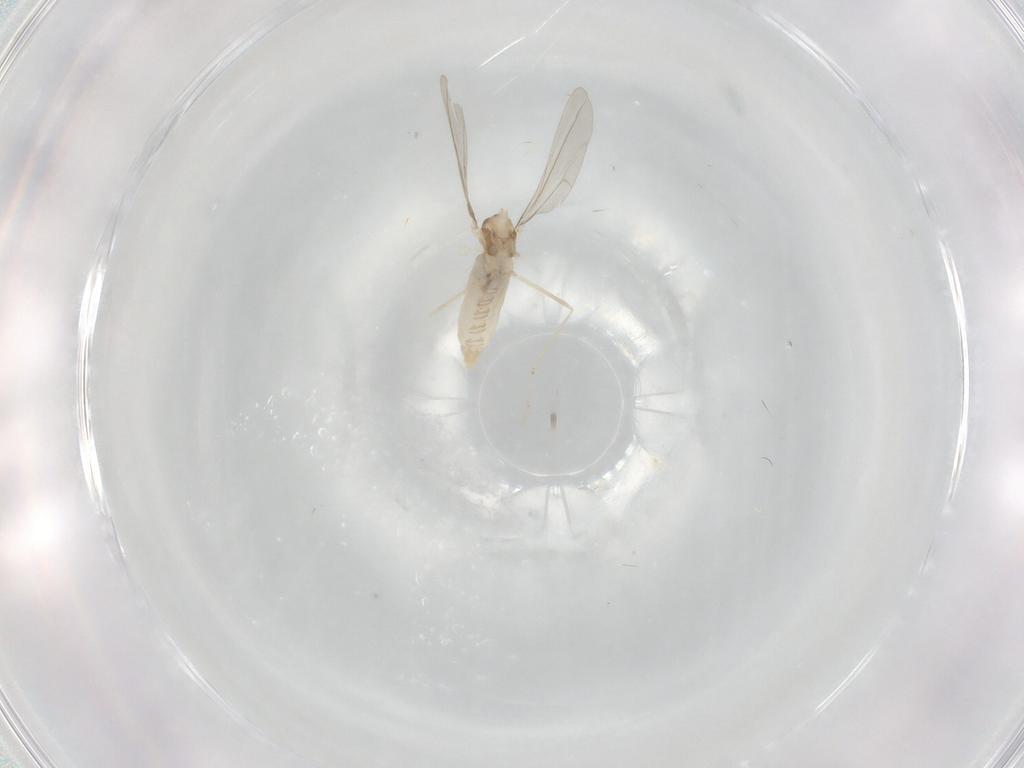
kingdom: Animalia
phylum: Arthropoda
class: Insecta
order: Diptera
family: Cecidomyiidae
